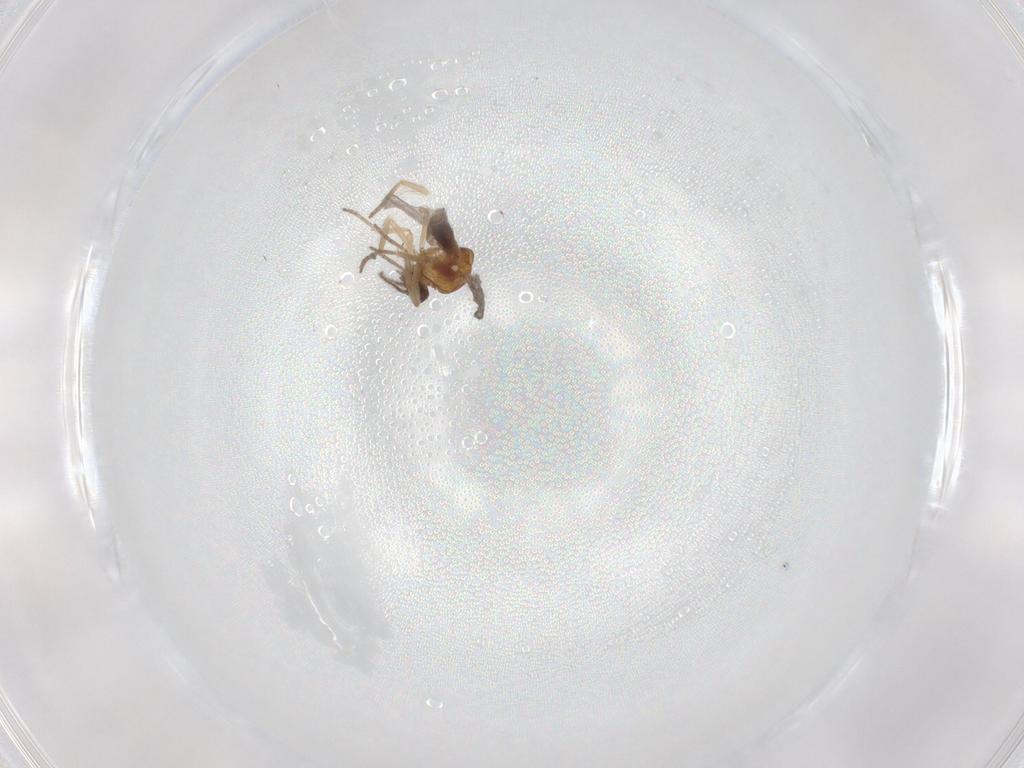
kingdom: Animalia
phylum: Arthropoda
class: Insecta
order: Diptera
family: Ceratopogonidae
